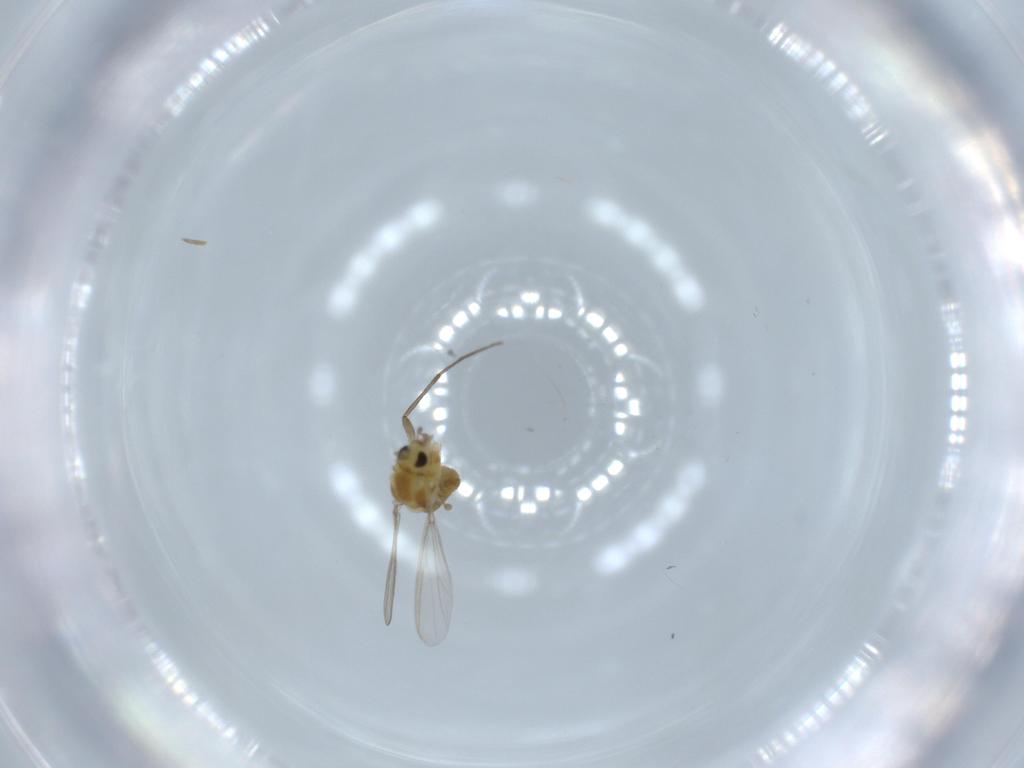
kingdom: Animalia
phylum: Arthropoda
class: Insecta
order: Diptera
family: Chironomidae
